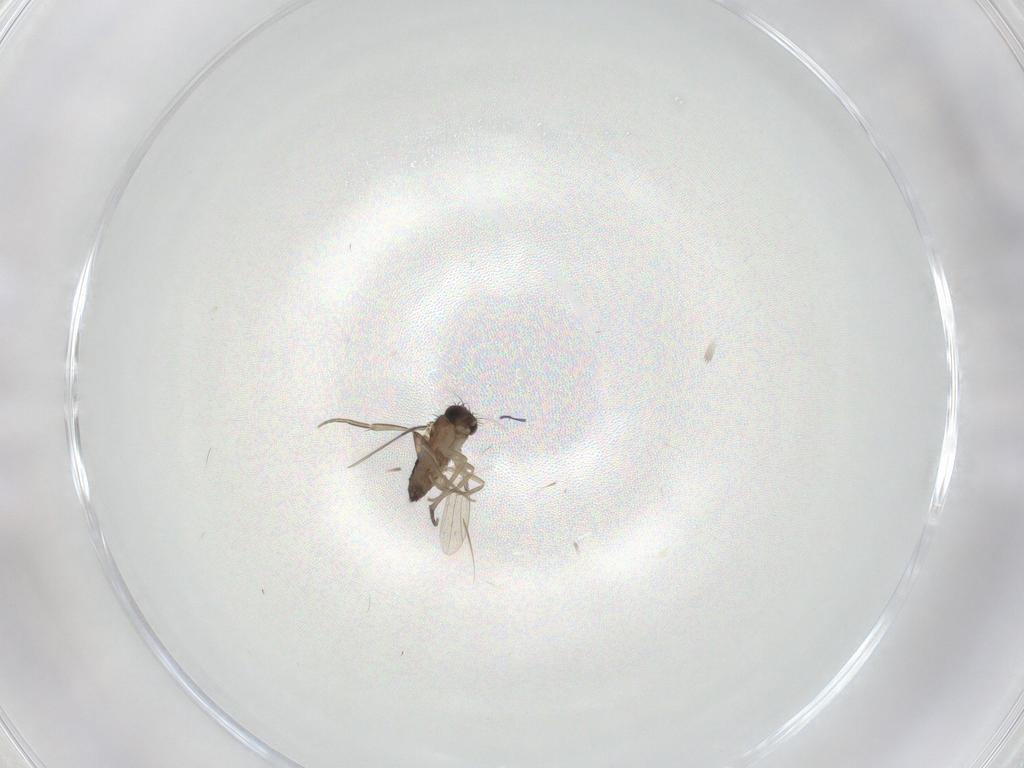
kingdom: Animalia
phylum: Arthropoda
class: Insecta
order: Diptera
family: Phoridae
